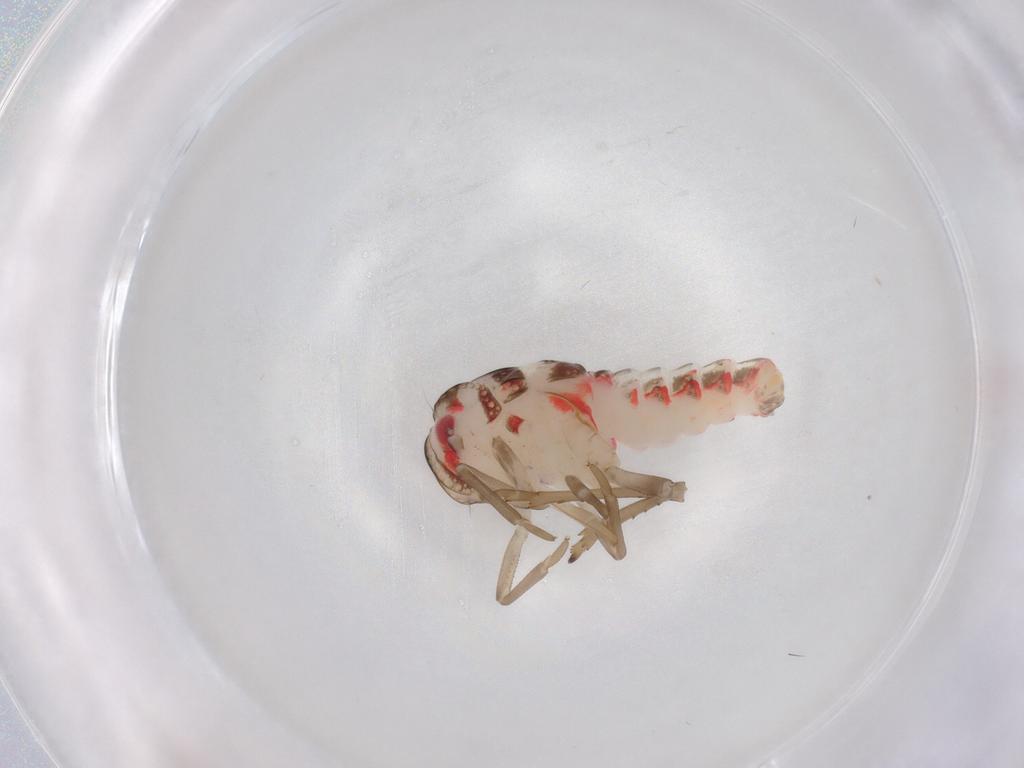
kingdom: Animalia
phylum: Arthropoda
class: Insecta
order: Hemiptera
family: Nogodinidae
